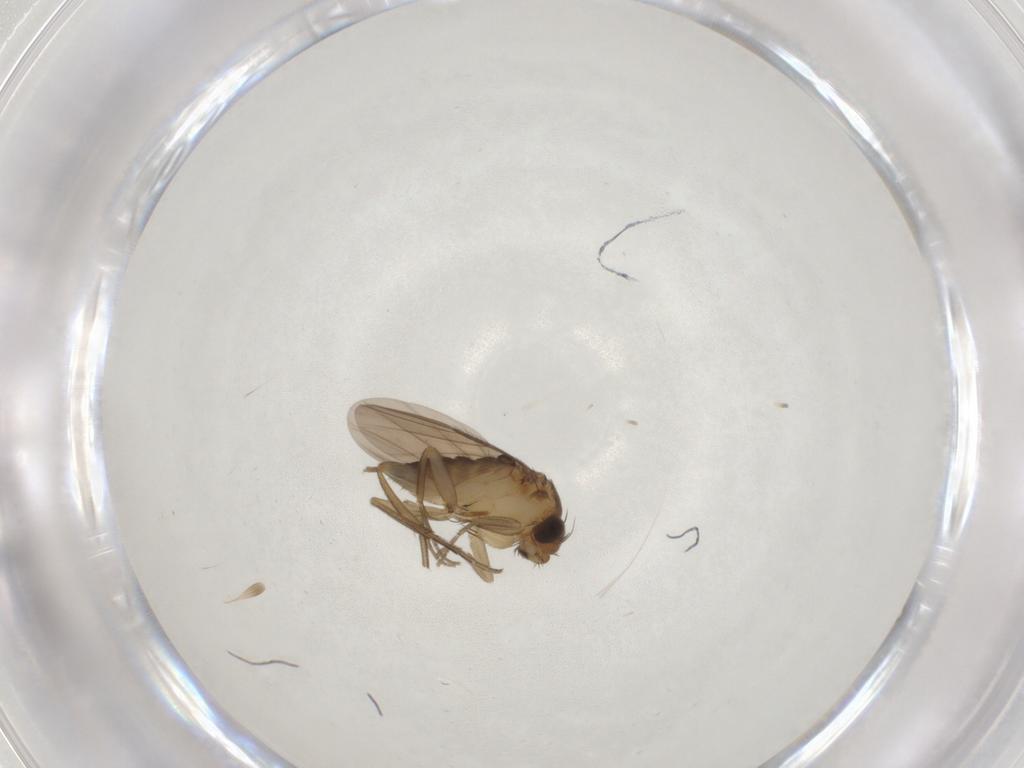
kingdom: Animalia
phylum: Arthropoda
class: Insecta
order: Diptera
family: Phoridae
